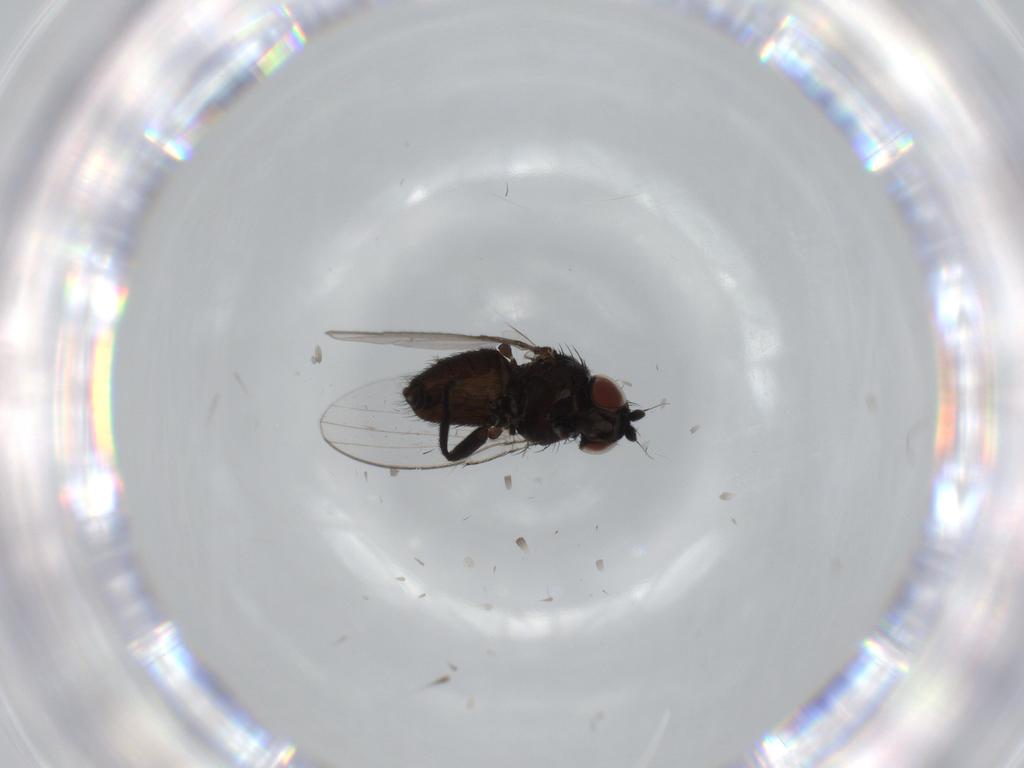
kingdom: Animalia
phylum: Arthropoda
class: Insecta
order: Diptera
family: Milichiidae
